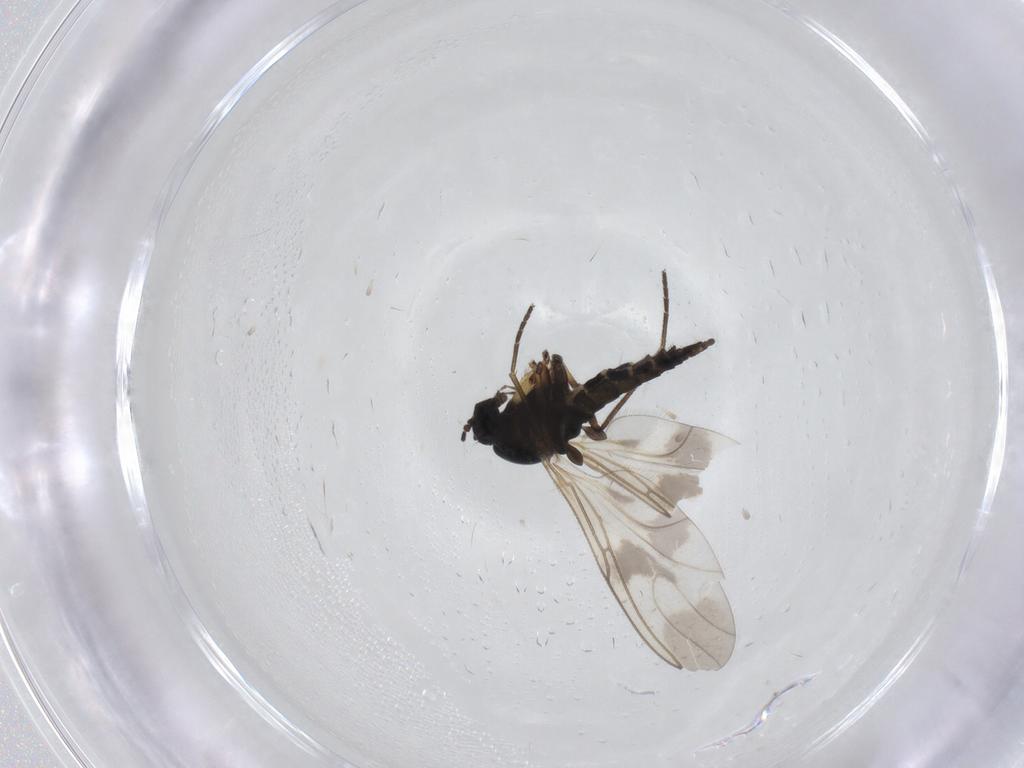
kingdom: Animalia
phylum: Arthropoda
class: Insecta
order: Diptera
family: Sciaridae
